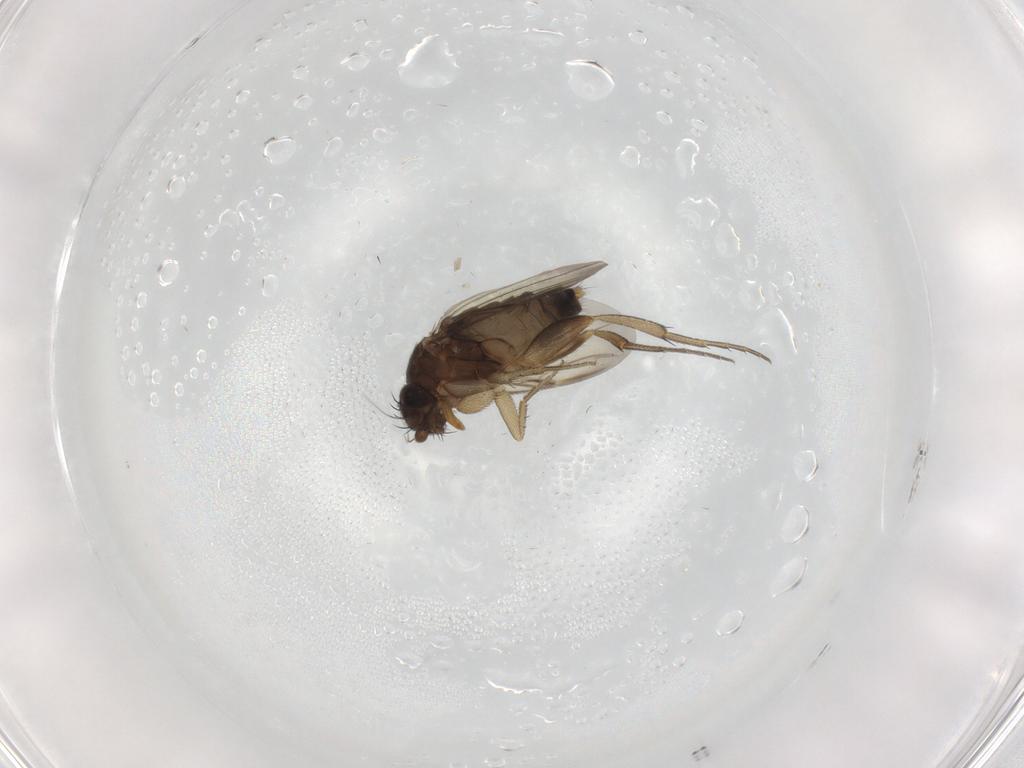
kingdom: Animalia
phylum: Arthropoda
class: Insecta
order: Diptera
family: Phoridae
